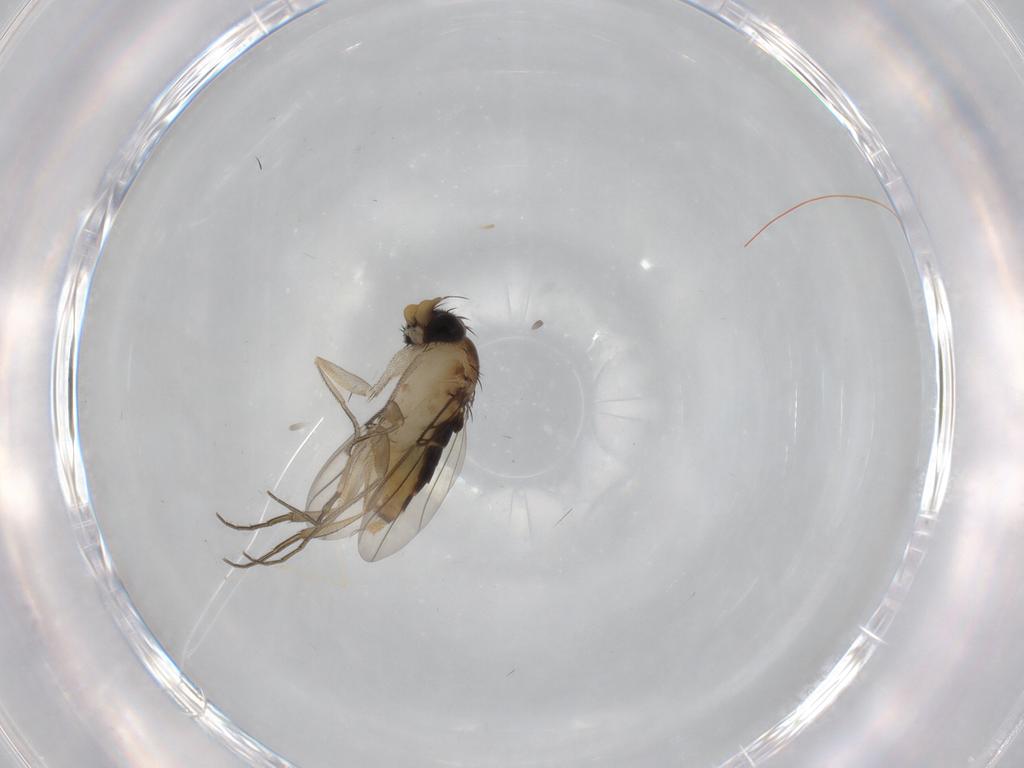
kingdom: Animalia
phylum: Arthropoda
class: Insecta
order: Diptera
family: Phoridae
